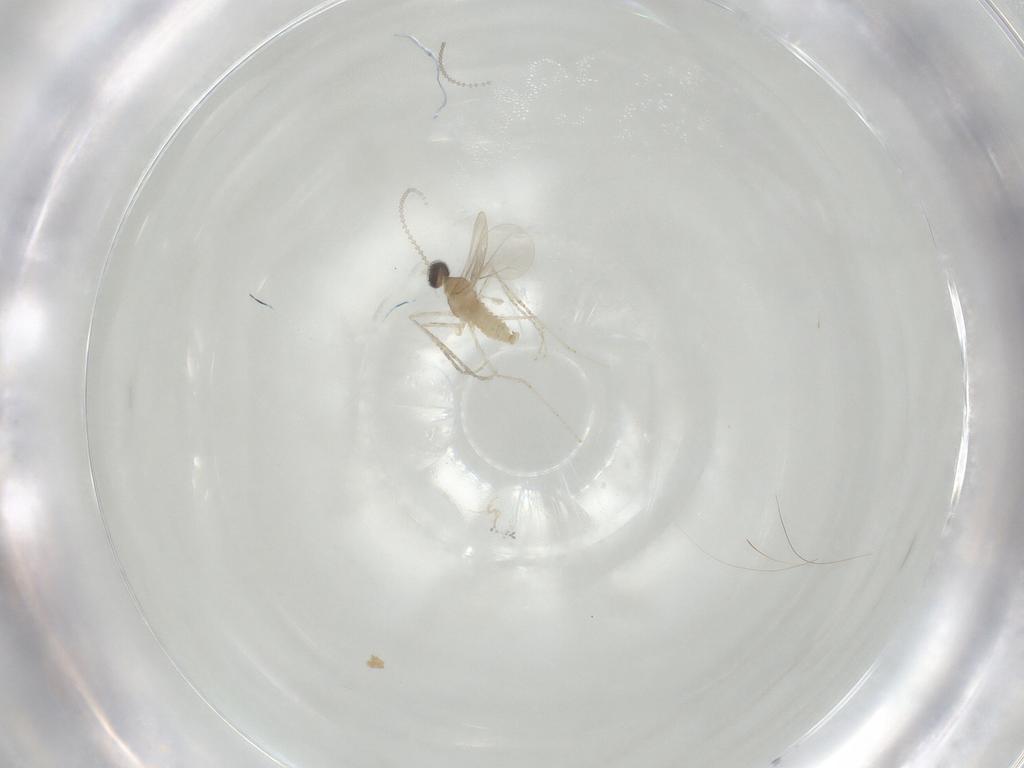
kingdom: Animalia
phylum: Arthropoda
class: Insecta
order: Diptera
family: Cecidomyiidae
